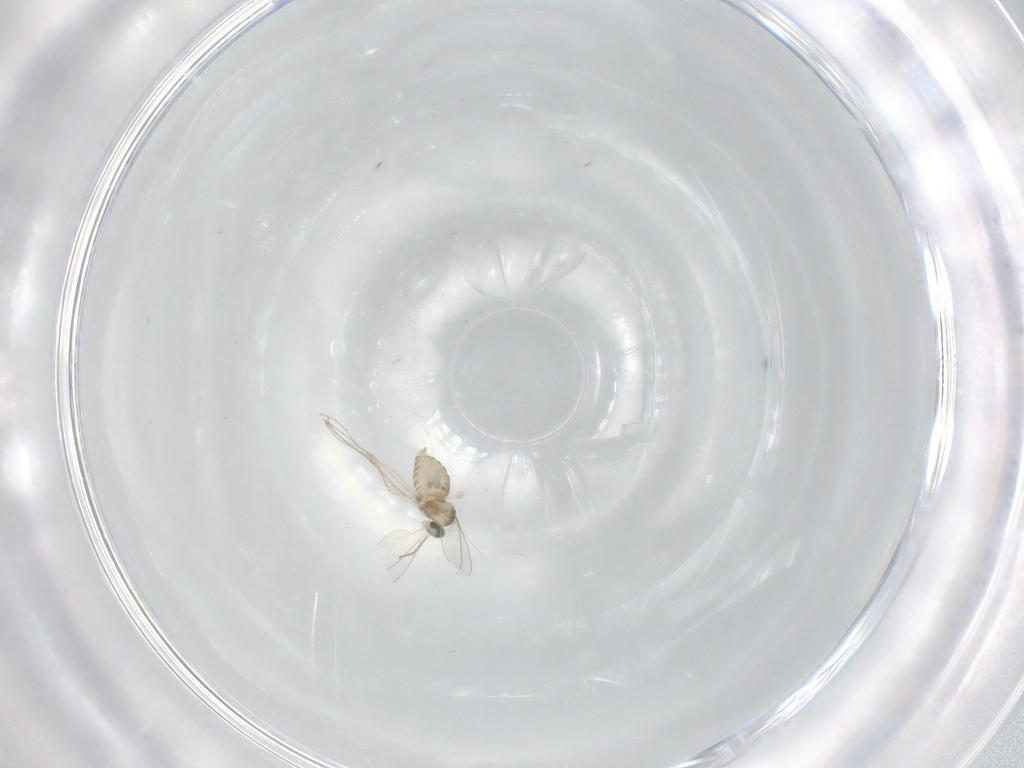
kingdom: Animalia
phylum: Arthropoda
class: Insecta
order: Diptera
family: Cecidomyiidae
